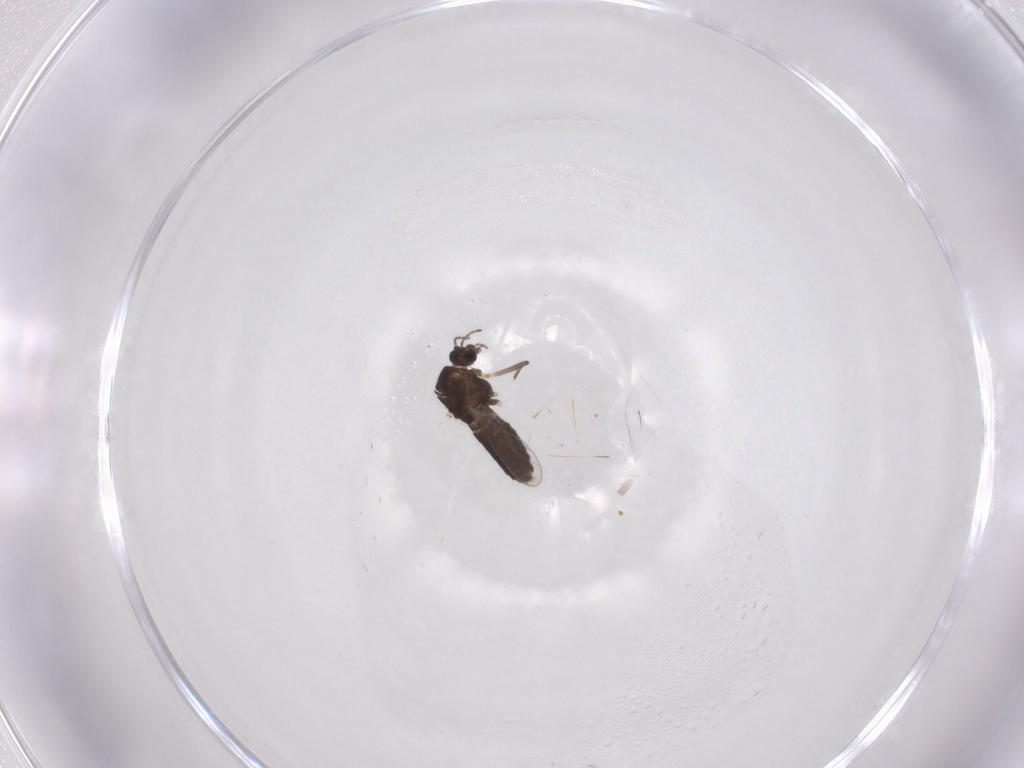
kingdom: Animalia
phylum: Arthropoda
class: Insecta
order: Diptera
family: Chironomidae
